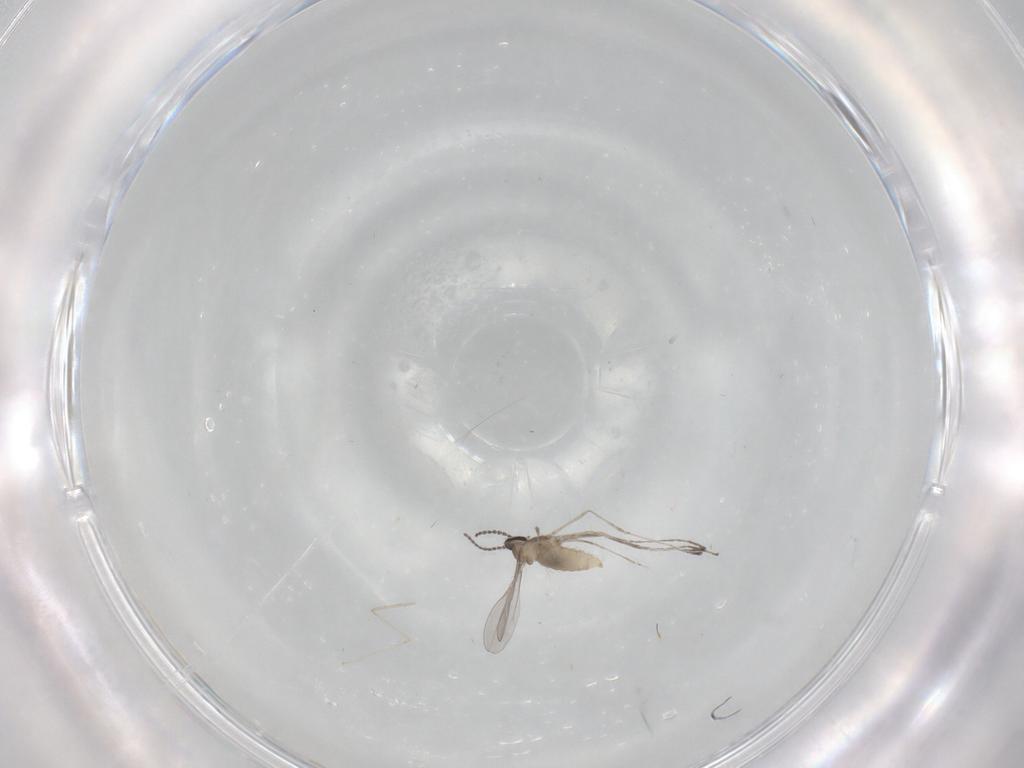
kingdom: Animalia
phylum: Arthropoda
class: Insecta
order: Diptera
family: Cecidomyiidae
